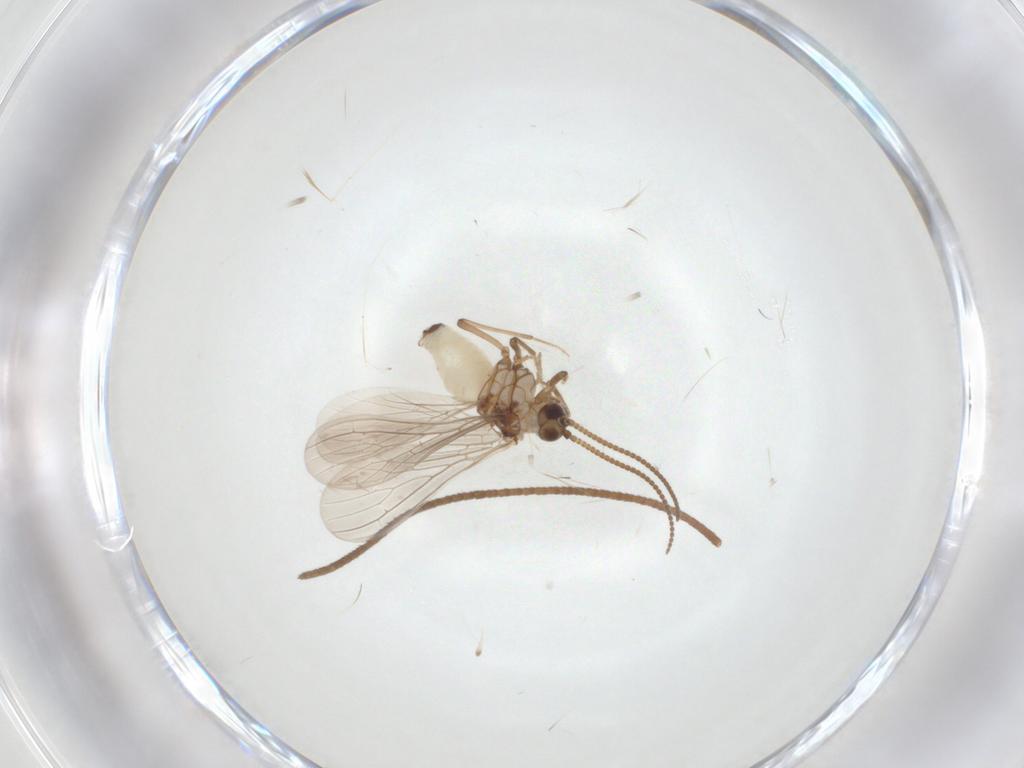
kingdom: Animalia
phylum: Arthropoda
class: Insecta
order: Neuroptera
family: Coniopterygidae
